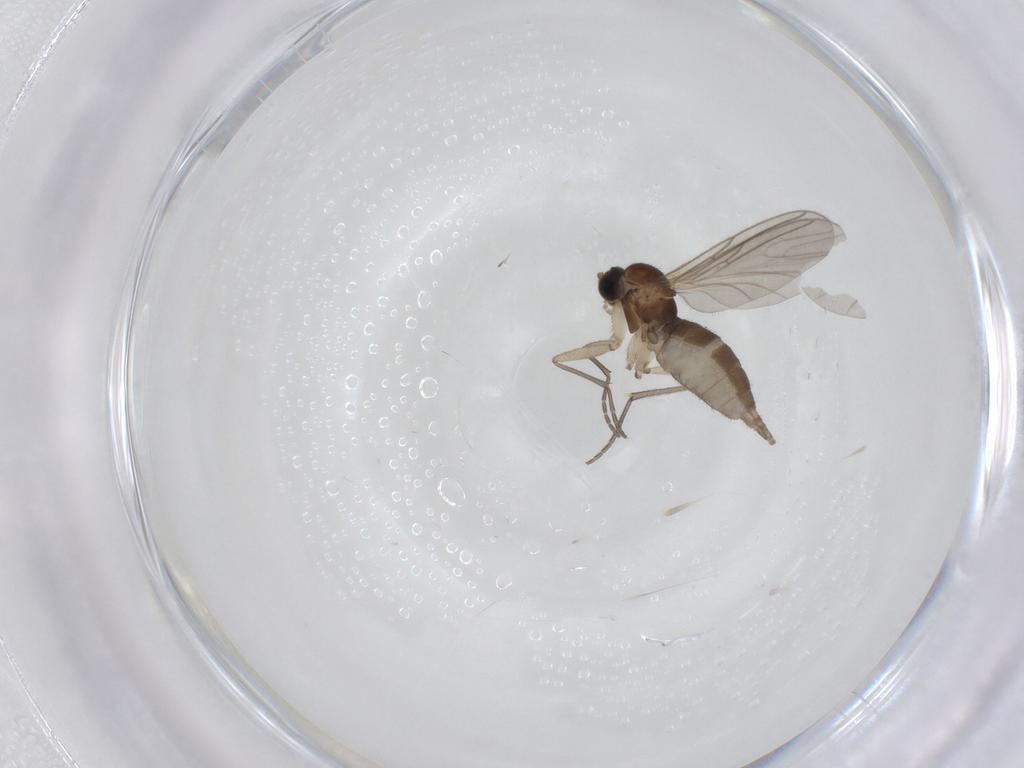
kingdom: Animalia
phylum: Arthropoda
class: Insecta
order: Diptera
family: Sciaridae
